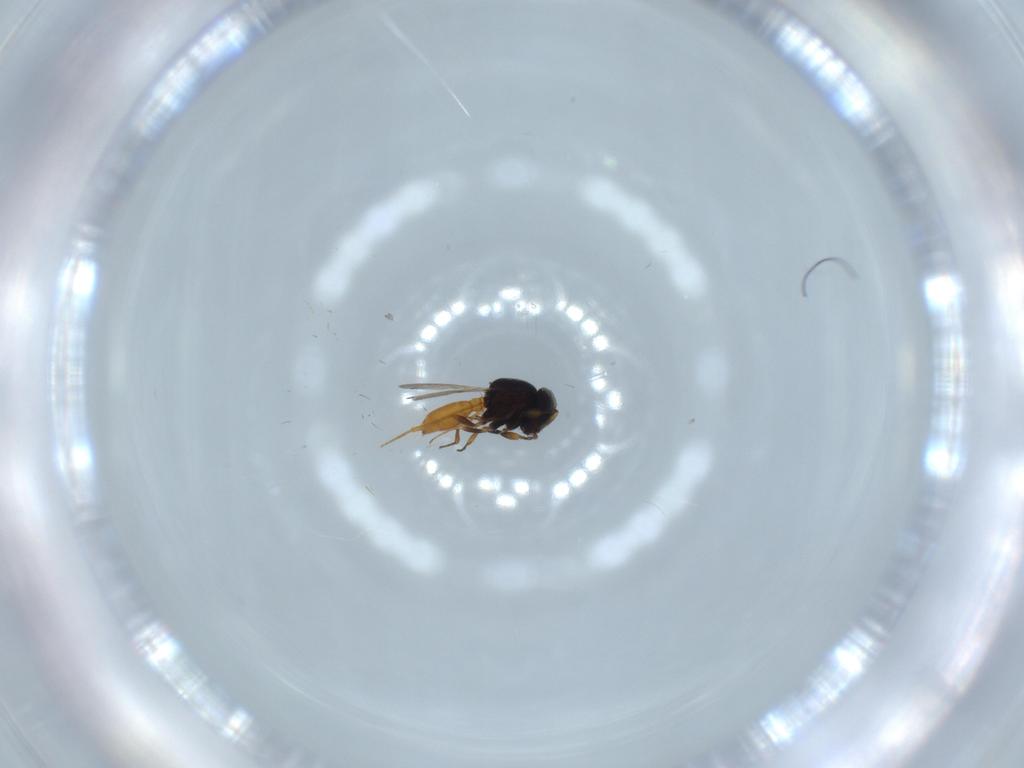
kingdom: Animalia
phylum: Arthropoda
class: Insecta
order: Hymenoptera
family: Scelionidae
